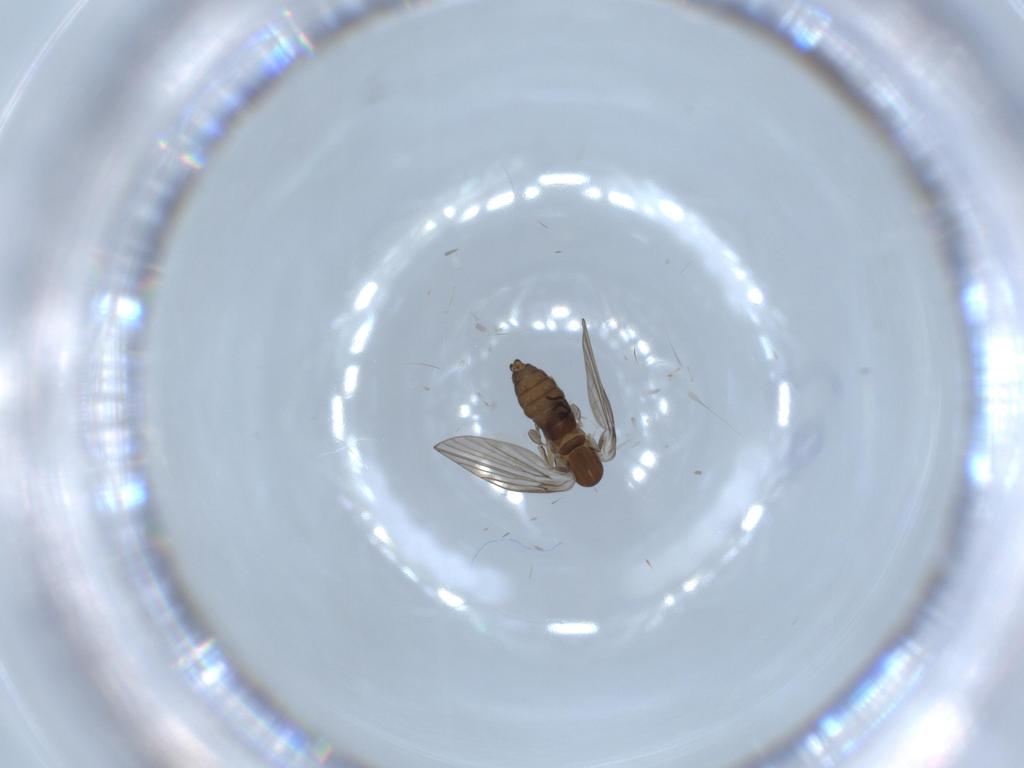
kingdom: Animalia
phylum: Arthropoda
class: Insecta
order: Diptera
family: Psychodidae
